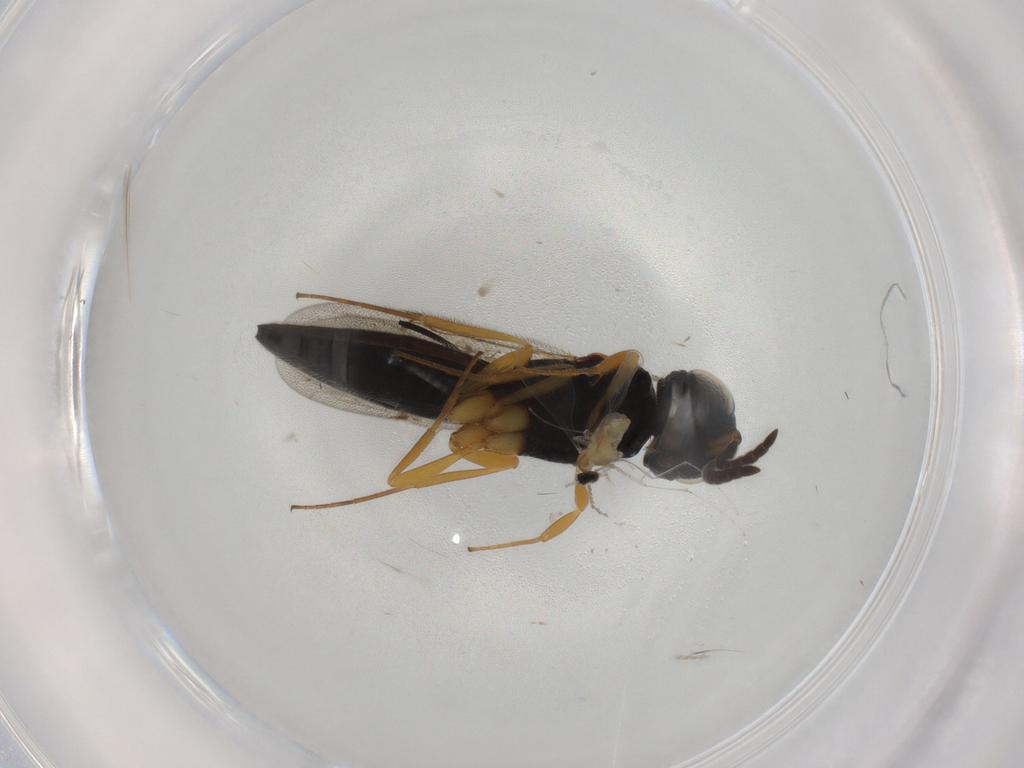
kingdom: Animalia
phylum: Arthropoda
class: Insecta
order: Hymenoptera
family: Scelionidae
